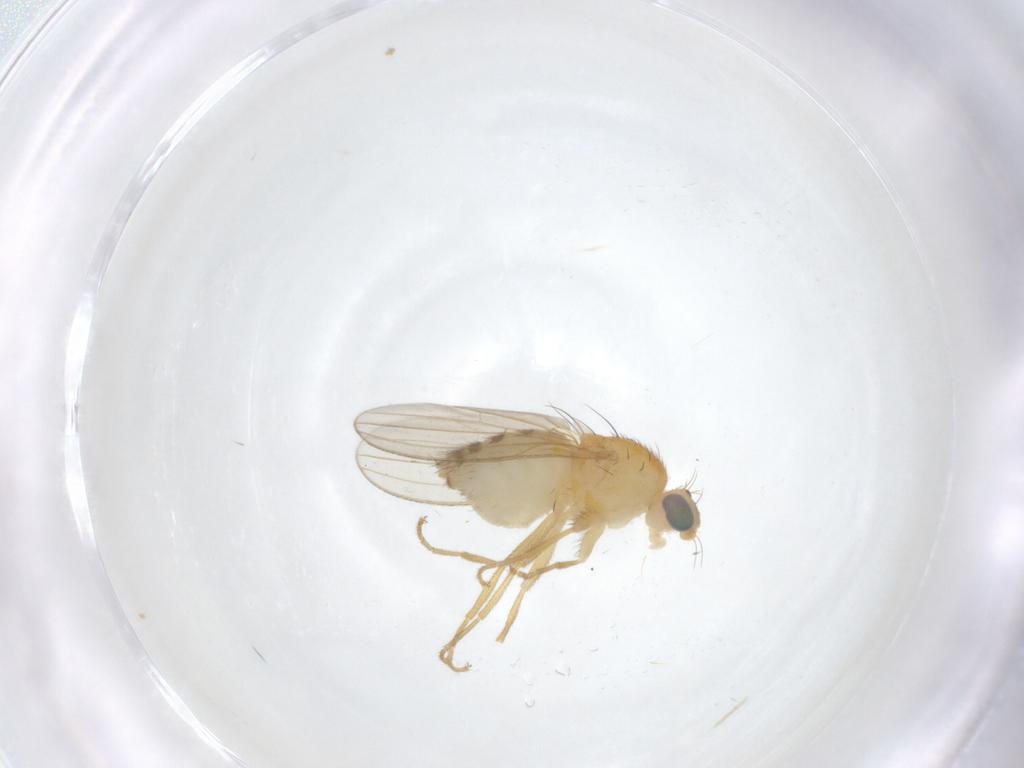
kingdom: Animalia
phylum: Arthropoda
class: Insecta
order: Diptera
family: Chyromyidae
